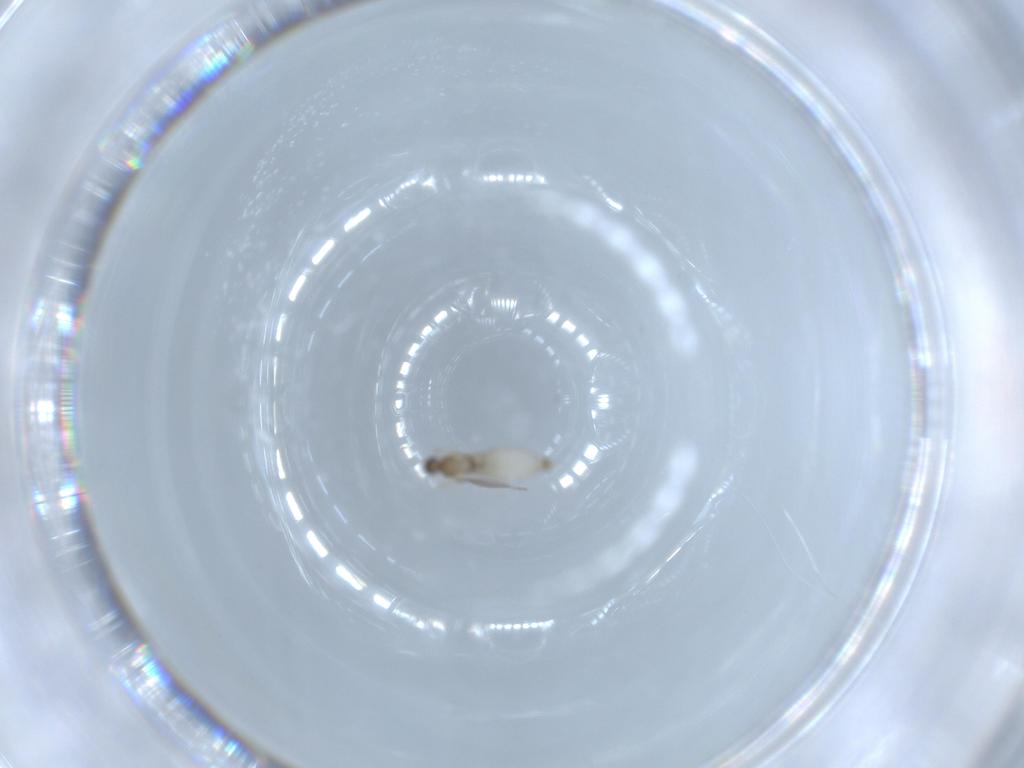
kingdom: Animalia
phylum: Arthropoda
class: Insecta
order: Diptera
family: Cecidomyiidae
